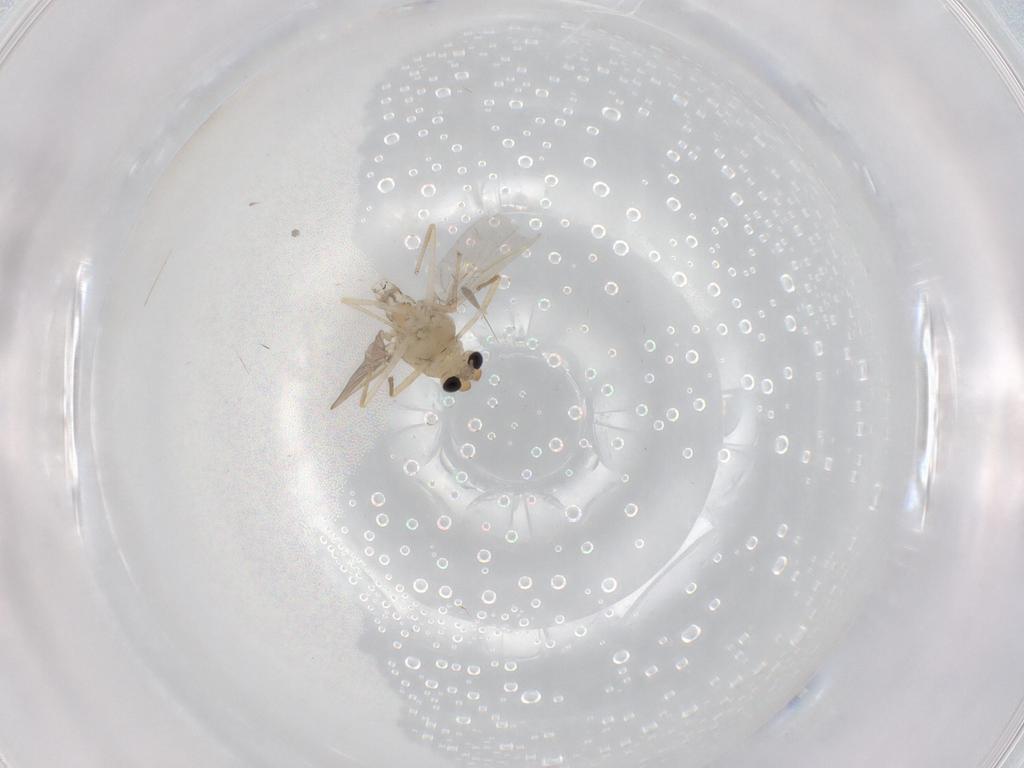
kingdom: Animalia
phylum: Arthropoda
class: Insecta
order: Diptera
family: Chironomidae
